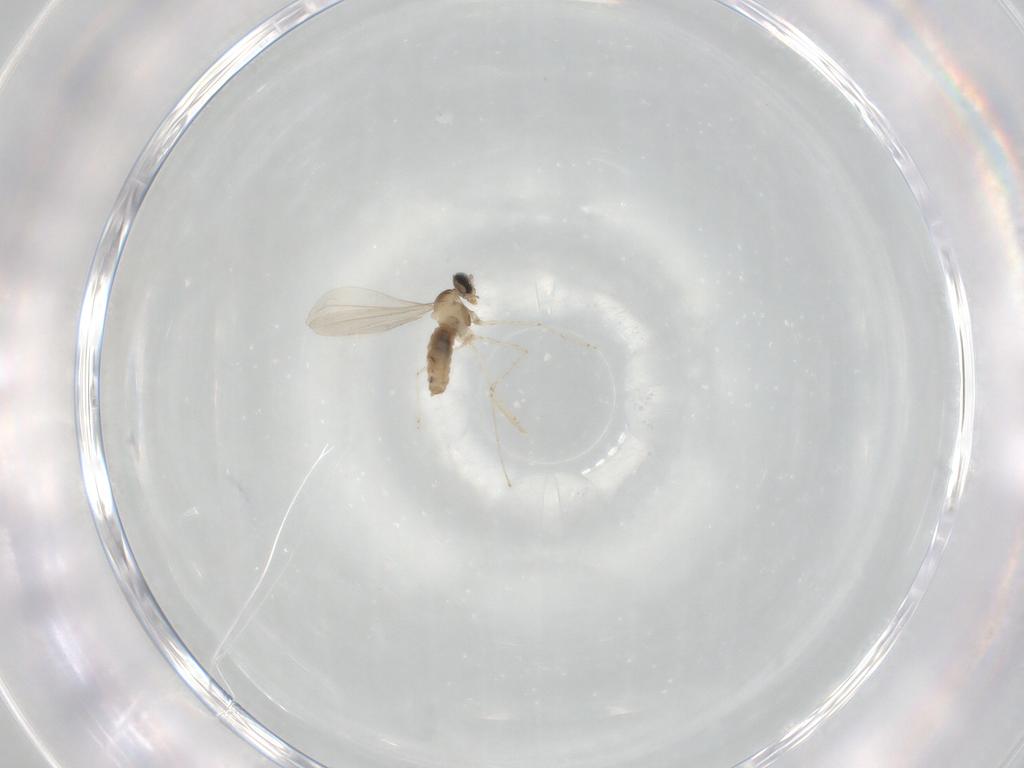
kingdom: Animalia
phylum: Arthropoda
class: Insecta
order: Diptera
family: Cecidomyiidae
